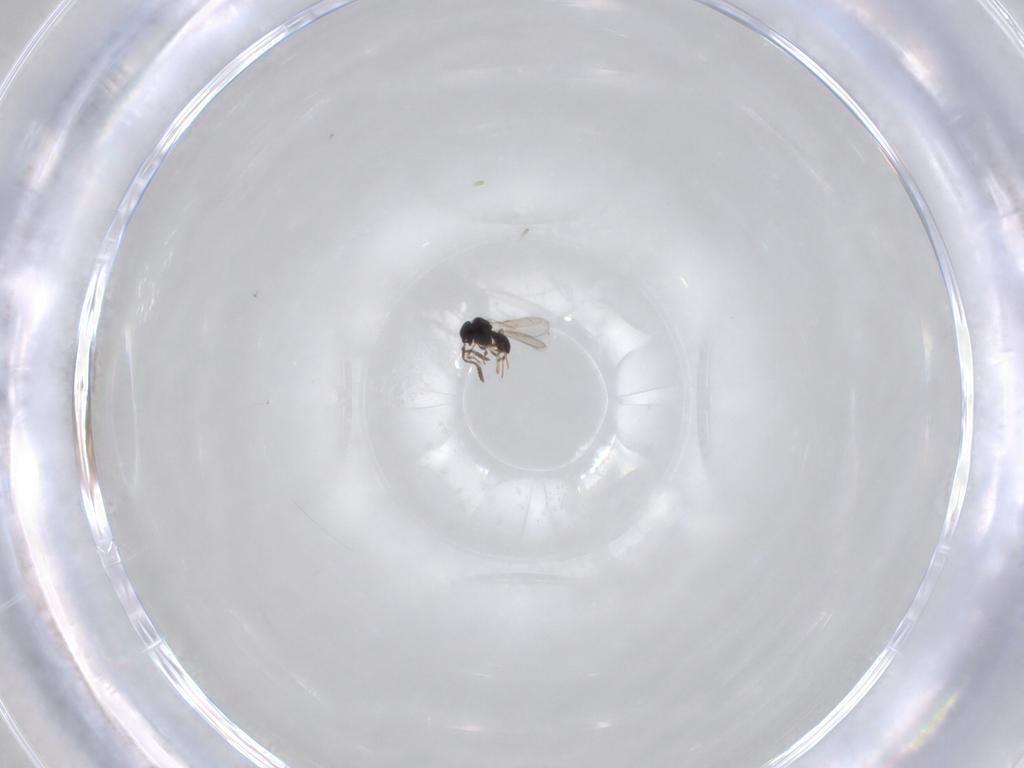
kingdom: Animalia
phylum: Arthropoda
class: Insecta
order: Hymenoptera
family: Scelionidae
